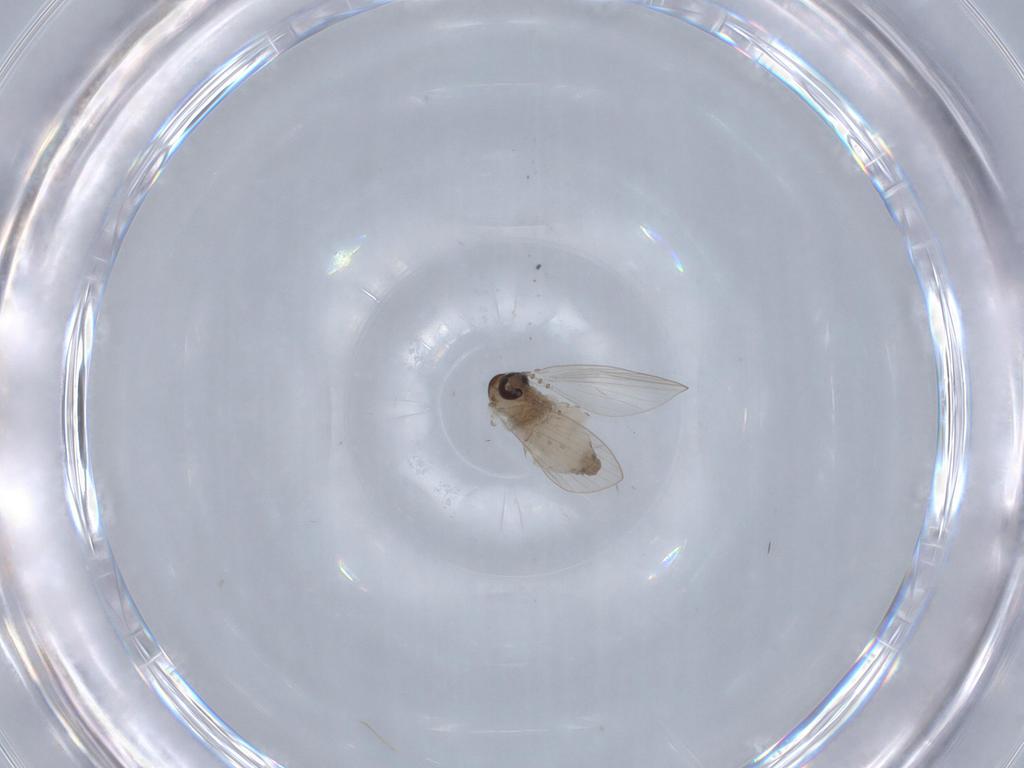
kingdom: Animalia
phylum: Arthropoda
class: Insecta
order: Diptera
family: Psychodidae
